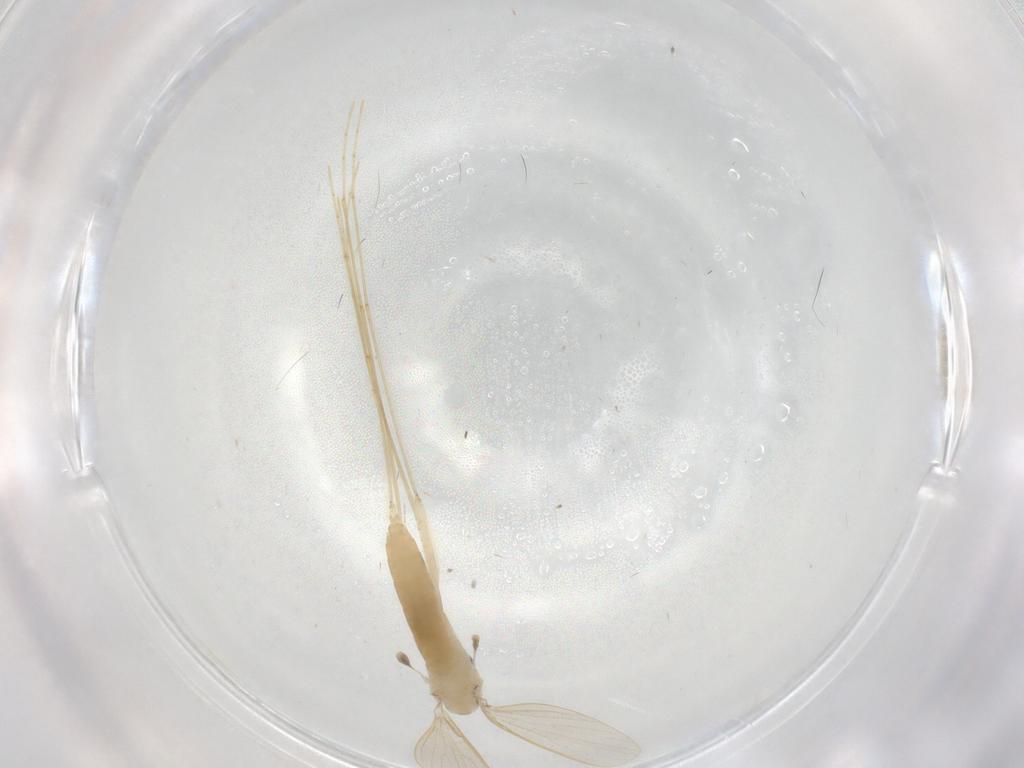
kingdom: Animalia
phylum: Arthropoda
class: Insecta
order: Diptera
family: Psychodidae
